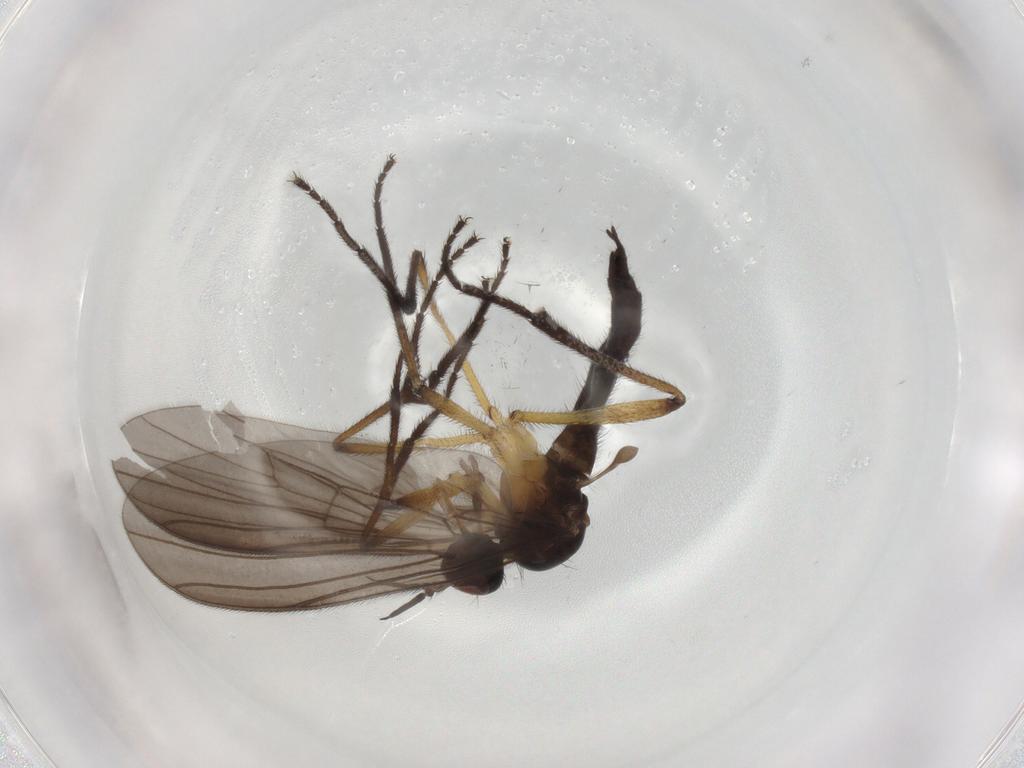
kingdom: Animalia
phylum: Arthropoda
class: Insecta
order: Diptera
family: Empididae
